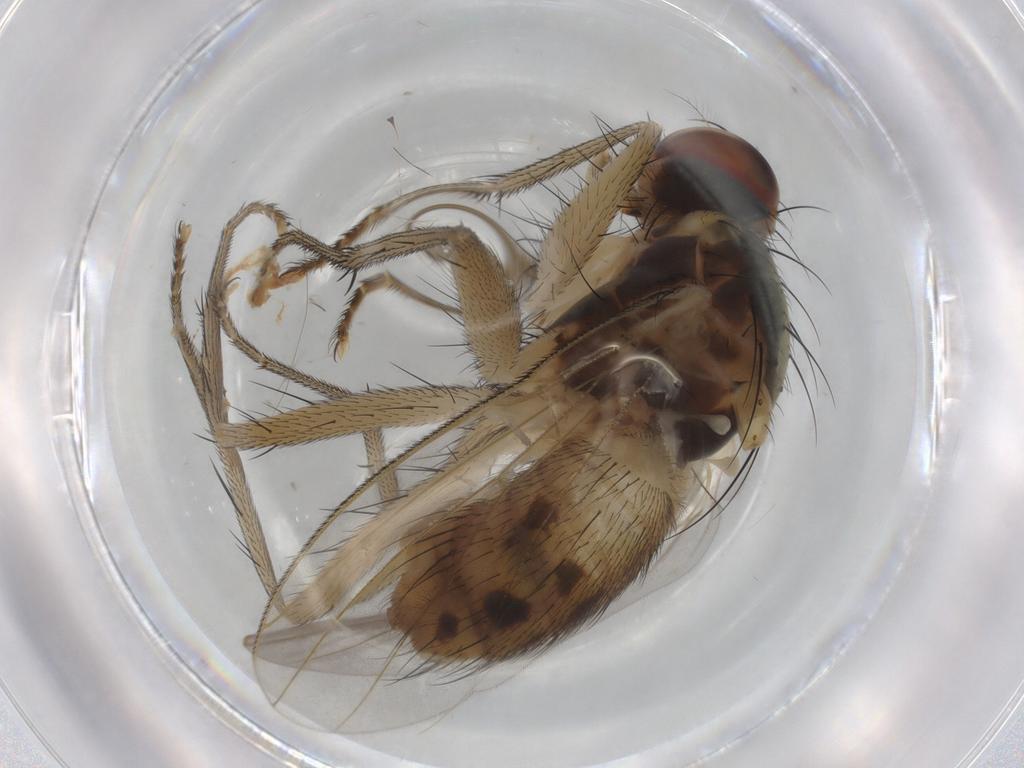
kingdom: Animalia
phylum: Arthropoda
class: Insecta
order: Diptera
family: Muscidae
